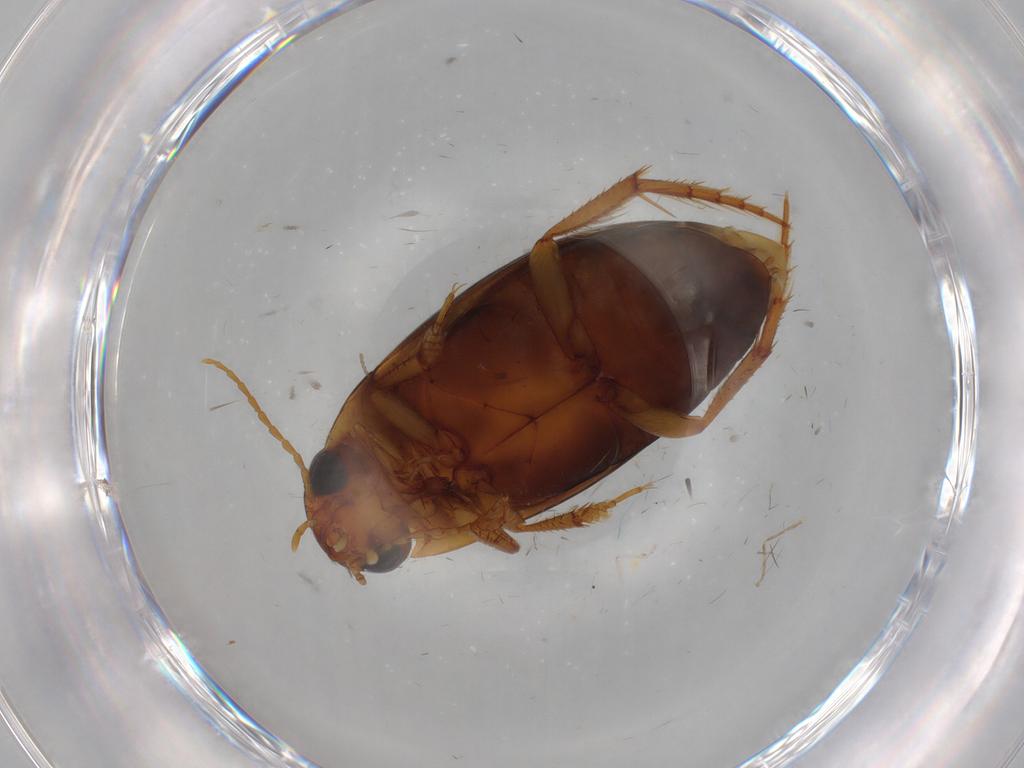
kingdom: Animalia
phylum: Arthropoda
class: Insecta
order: Coleoptera
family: Dytiscidae
